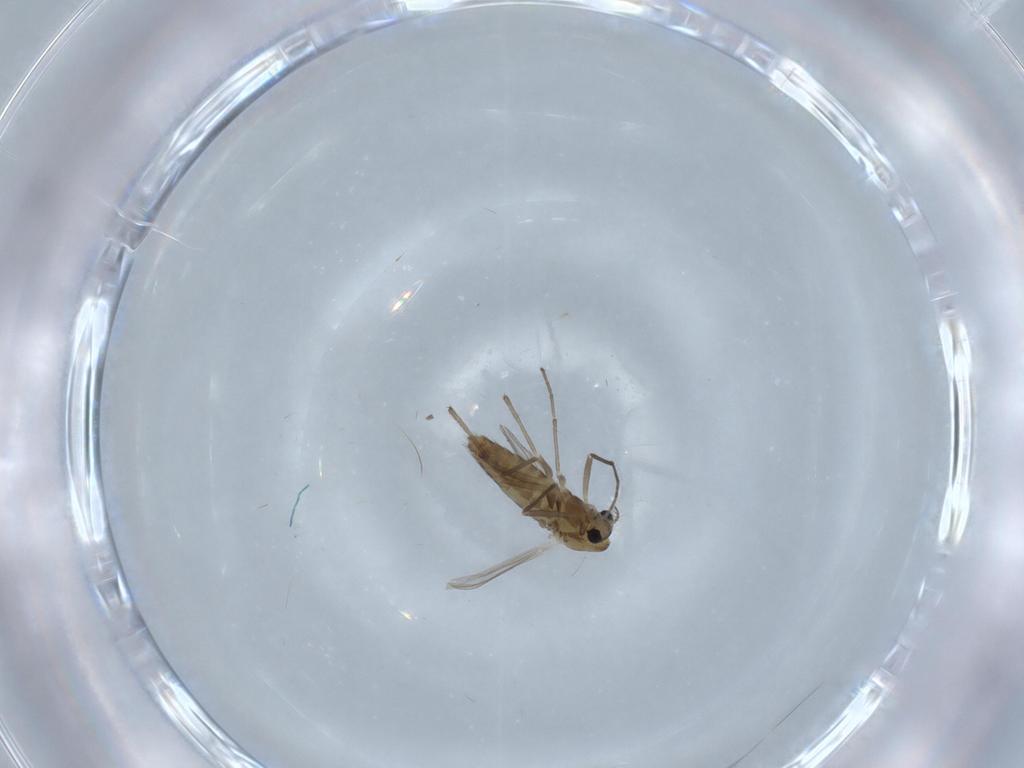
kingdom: Animalia
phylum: Arthropoda
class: Insecta
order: Diptera
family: Chironomidae
